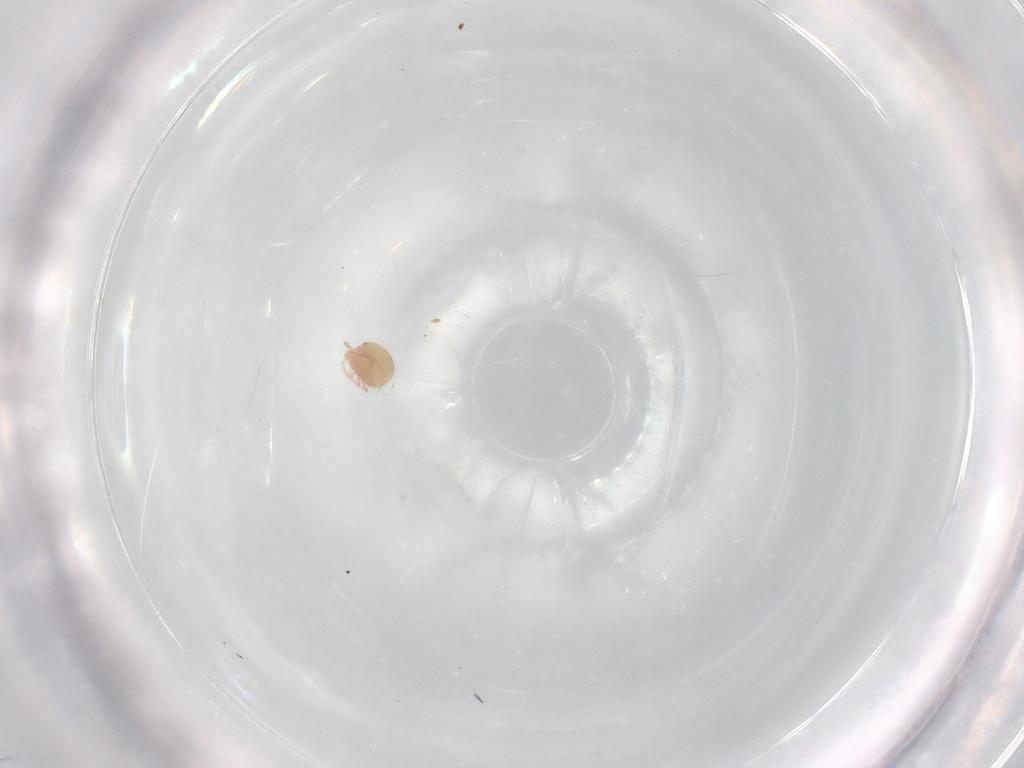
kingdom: Animalia
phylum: Arthropoda
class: Arachnida
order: Trombidiformes
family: Lebertiidae
